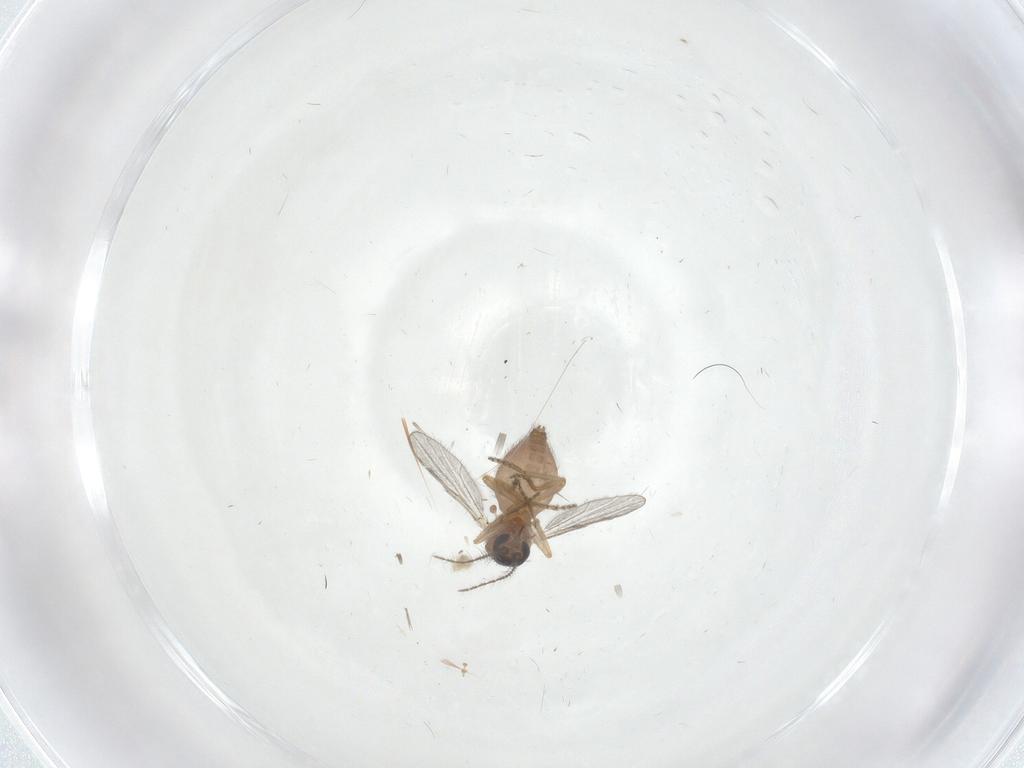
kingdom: Animalia
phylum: Arthropoda
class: Insecta
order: Diptera
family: Ceratopogonidae
